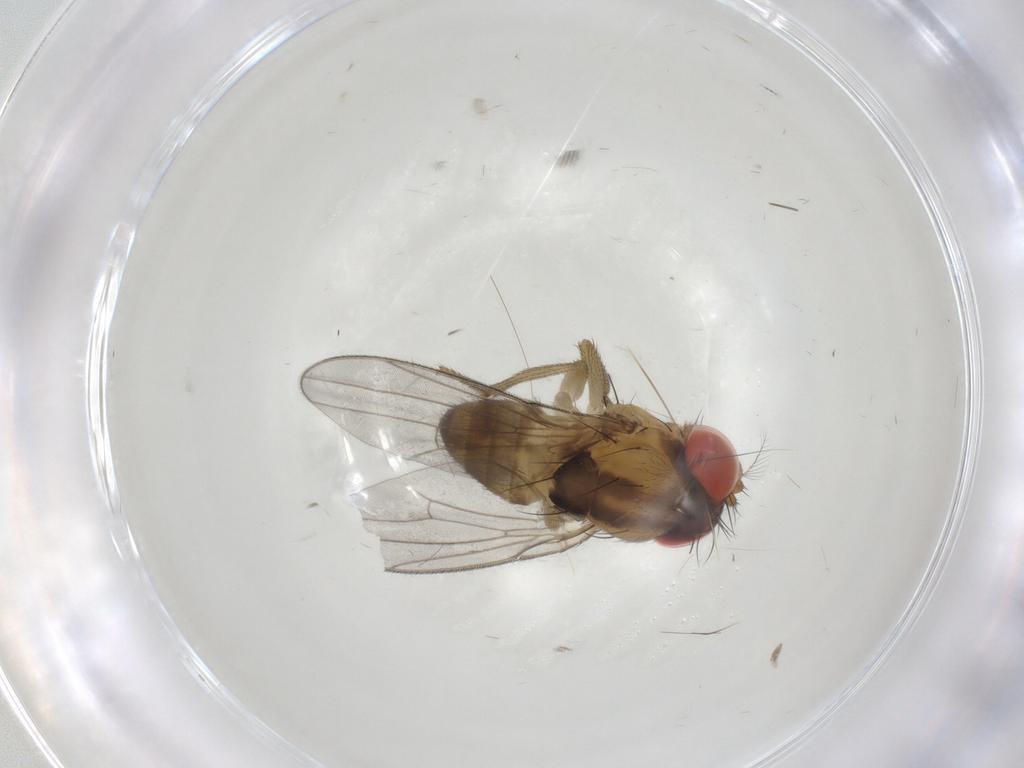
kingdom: Animalia
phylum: Arthropoda
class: Insecta
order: Diptera
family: Drosophilidae
